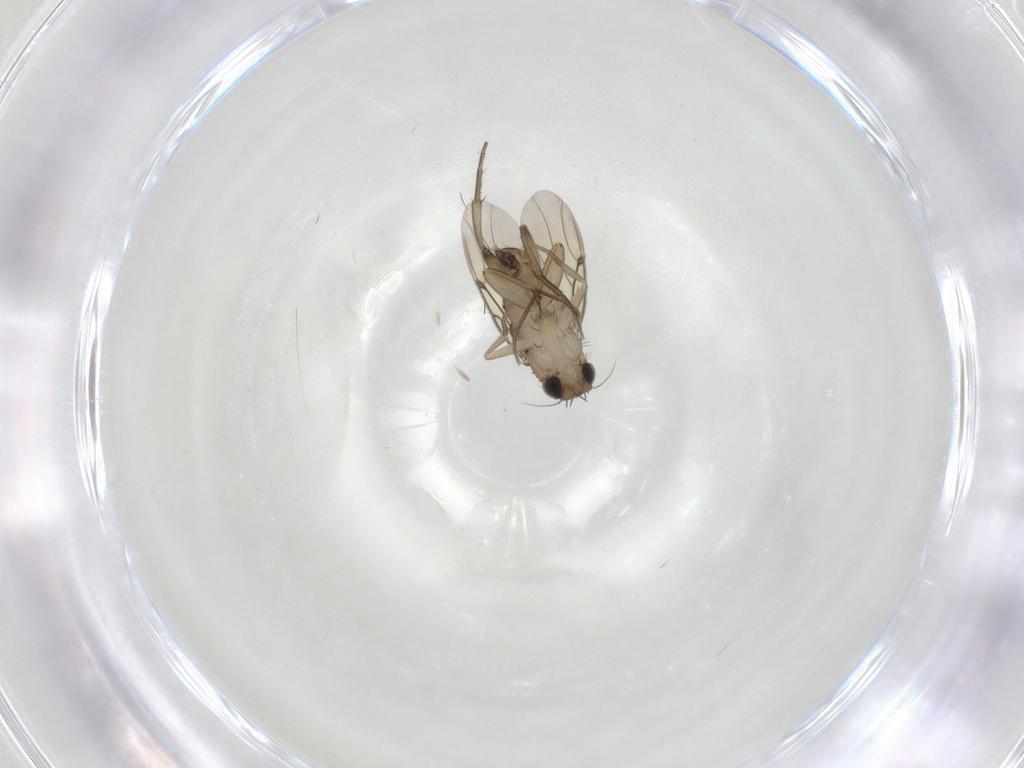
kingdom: Animalia
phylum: Arthropoda
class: Insecta
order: Diptera
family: Phoridae
